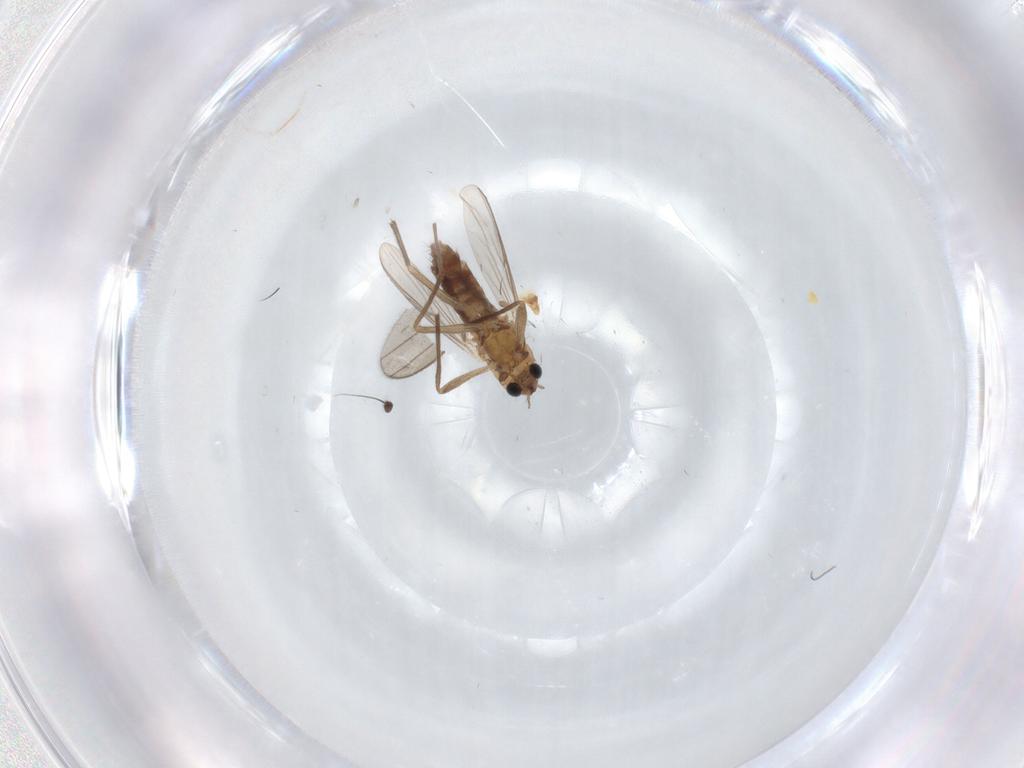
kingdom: Animalia
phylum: Arthropoda
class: Insecta
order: Diptera
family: Chironomidae
